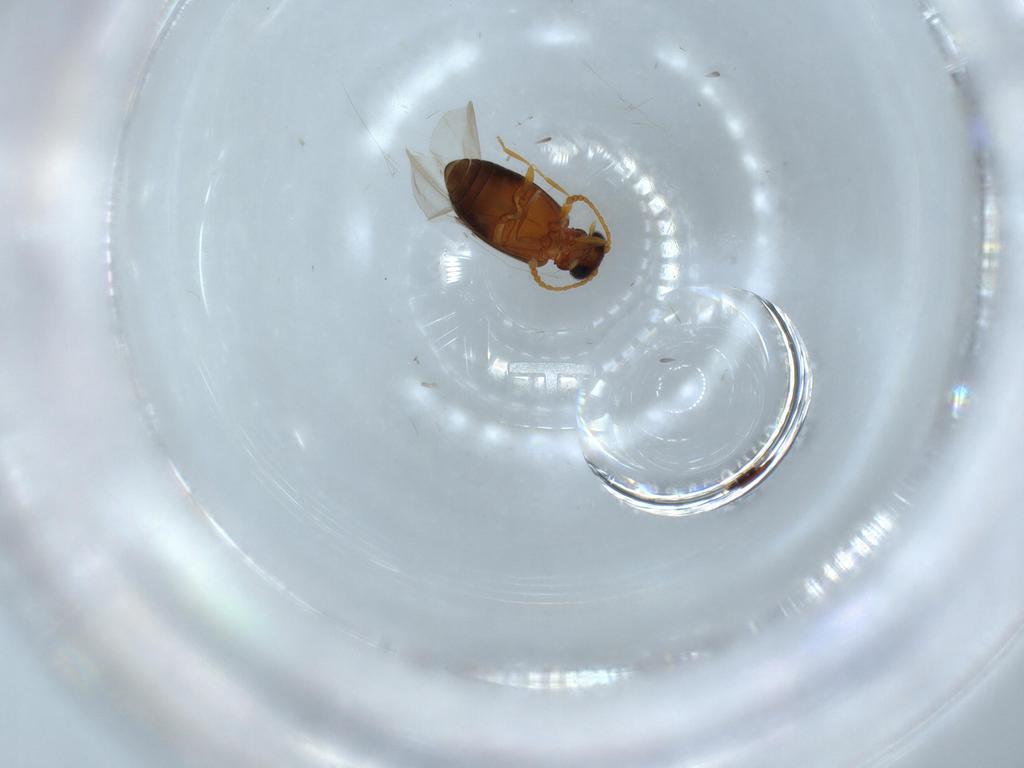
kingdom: Animalia
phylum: Arthropoda
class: Insecta
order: Coleoptera
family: Aderidae
